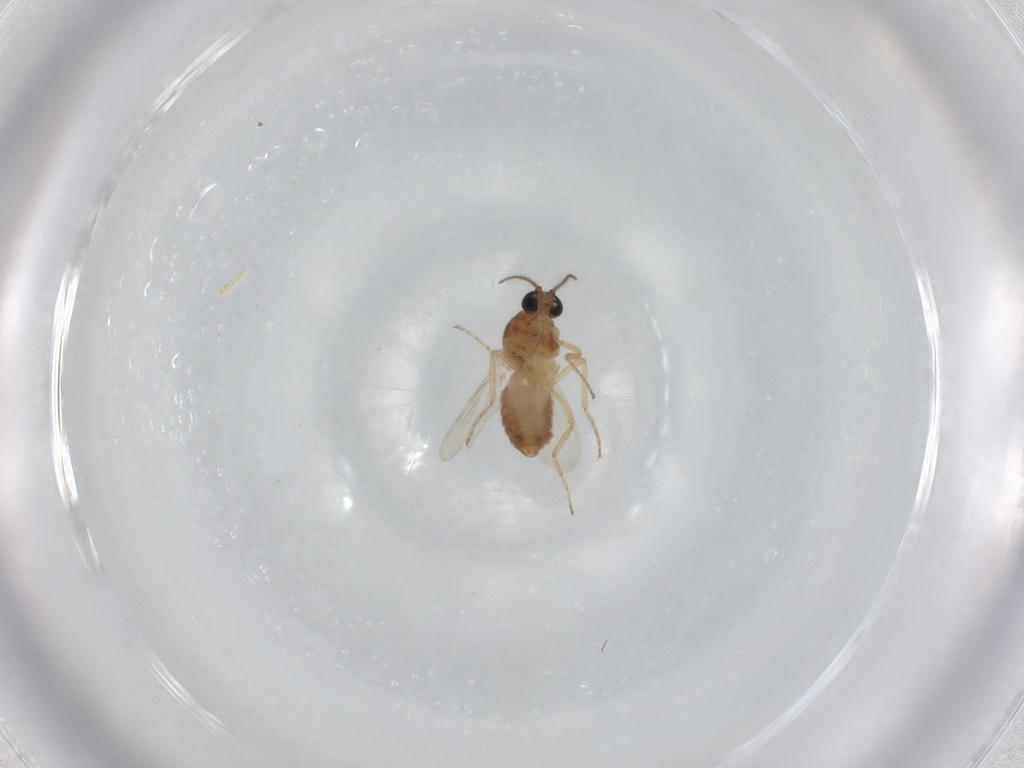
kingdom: Animalia
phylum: Arthropoda
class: Insecta
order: Diptera
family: Ceratopogonidae
